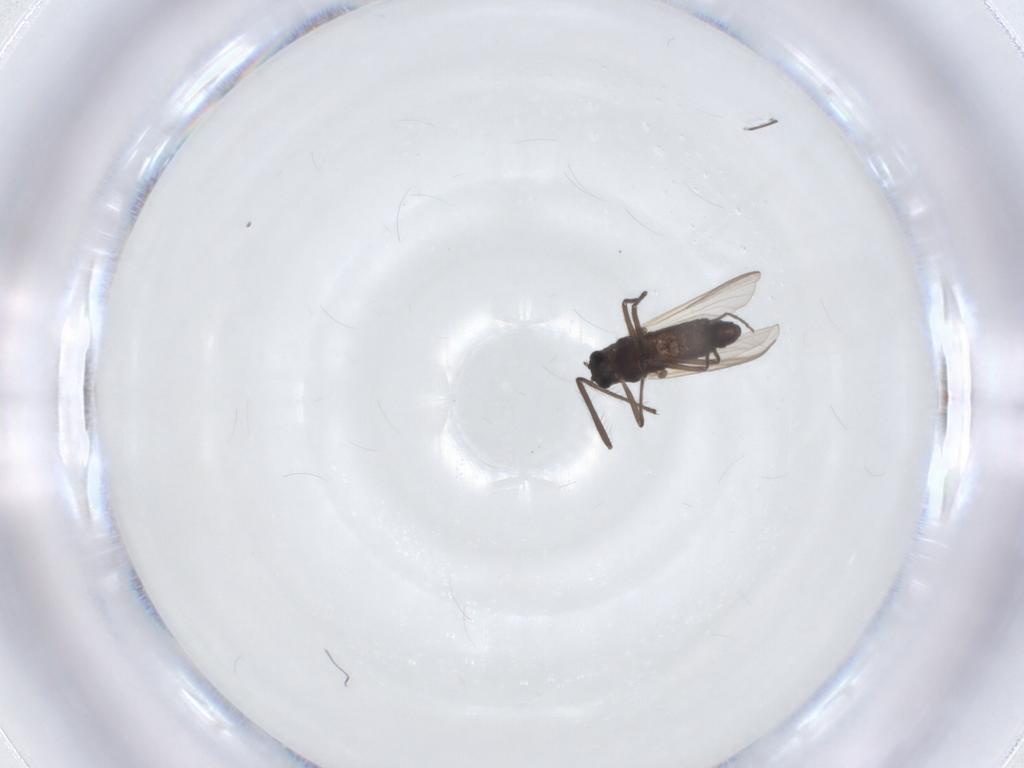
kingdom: Animalia
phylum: Arthropoda
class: Insecta
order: Diptera
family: Chironomidae
